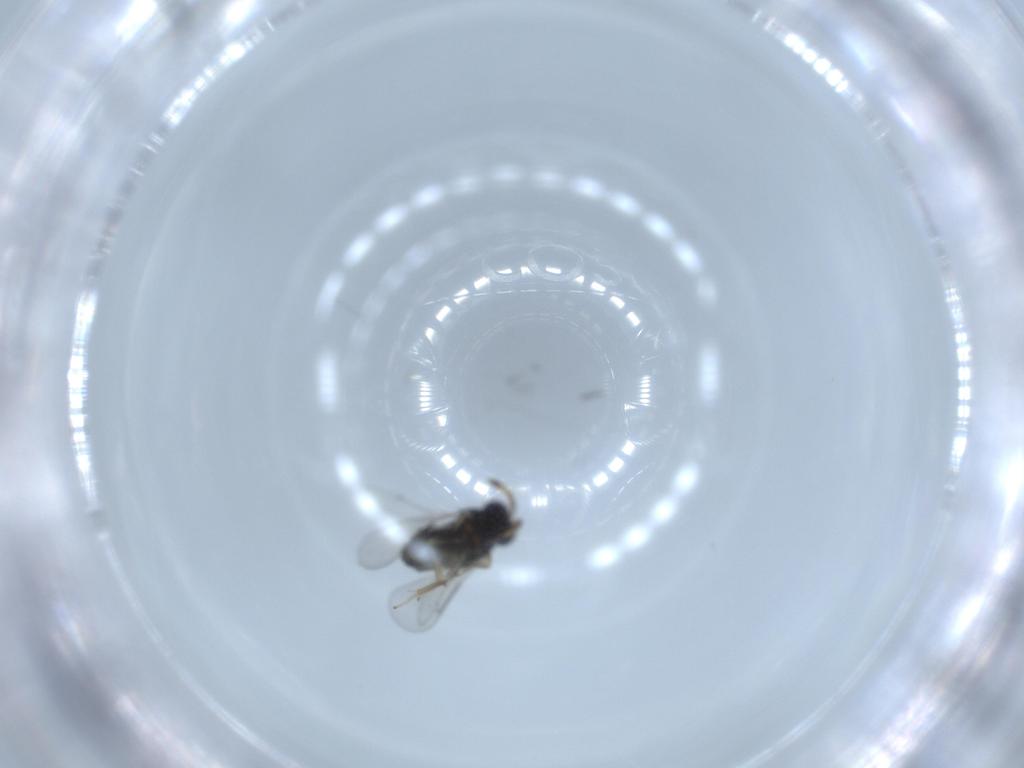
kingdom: Animalia
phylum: Arthropoda
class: Insecta
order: Hymenoptera
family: Aphelinidae
